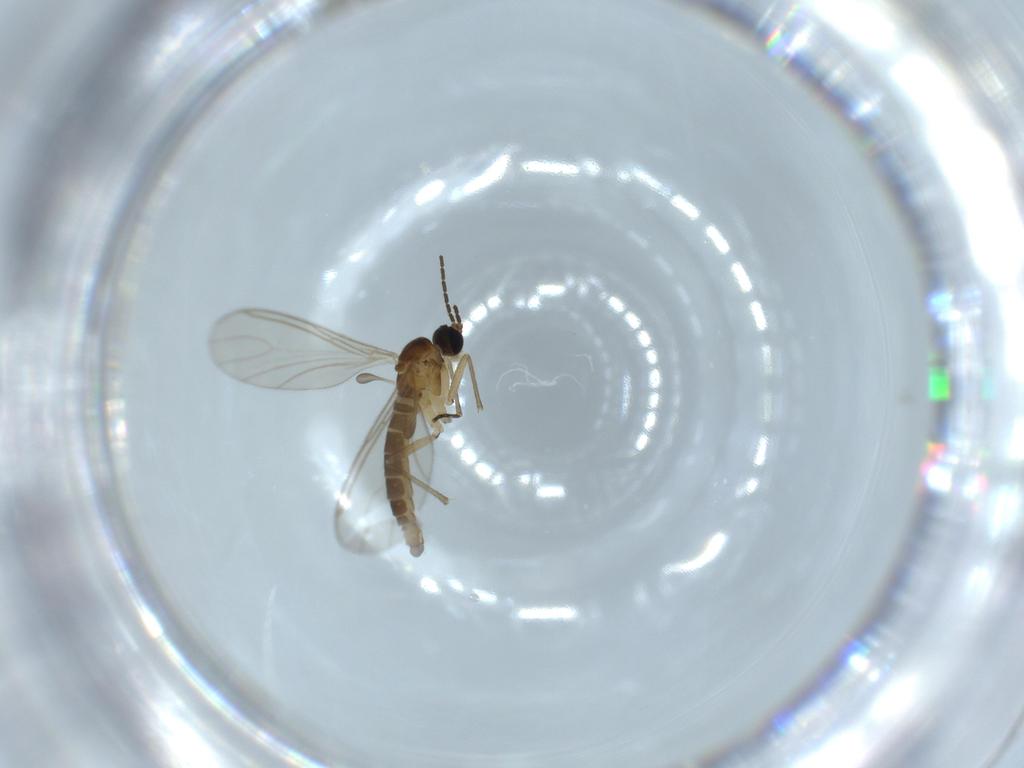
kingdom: Animalia
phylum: Arthropoda
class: Insecta
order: Diptera
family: Sciaridae
